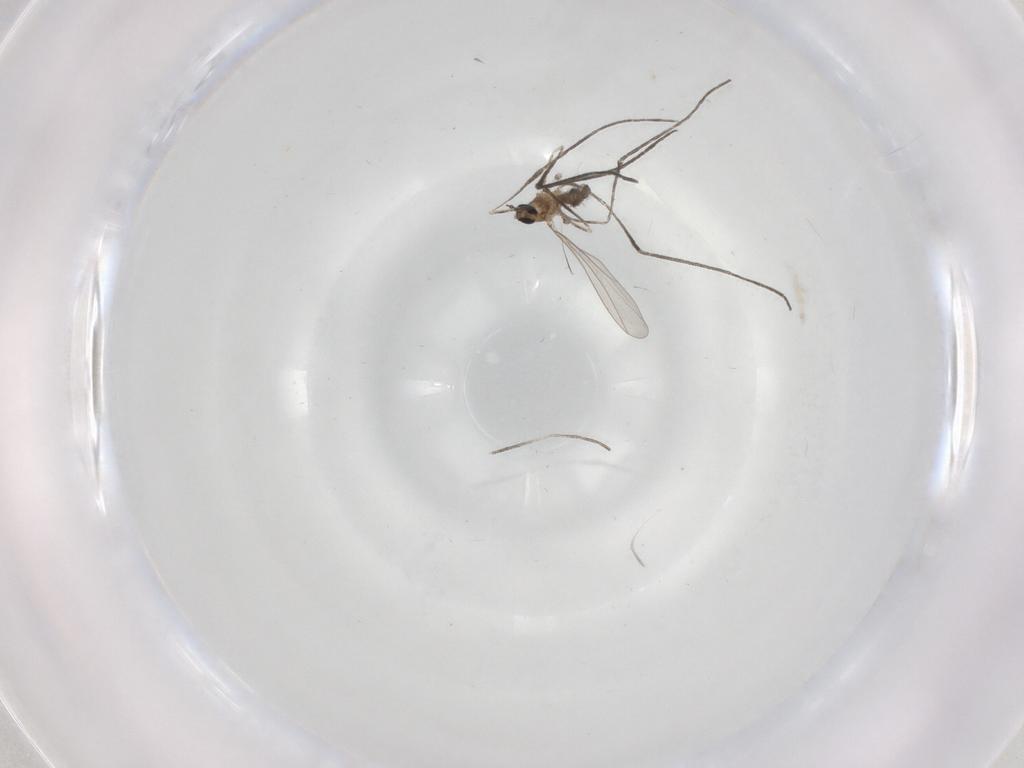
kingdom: Animalia
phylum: Arthropoda
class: Insecta
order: Diptera
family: Cecidomyiidae
